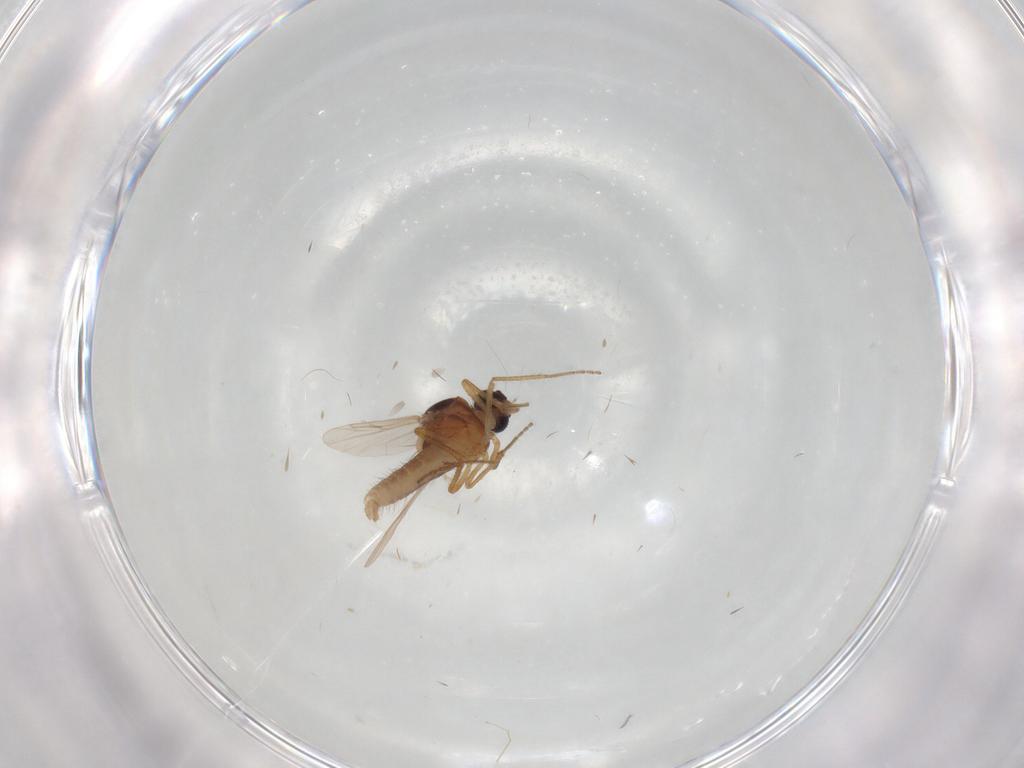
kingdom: Animalia
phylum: Arthropoda
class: Insecta
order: Diptera
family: Ceratopogonidae
